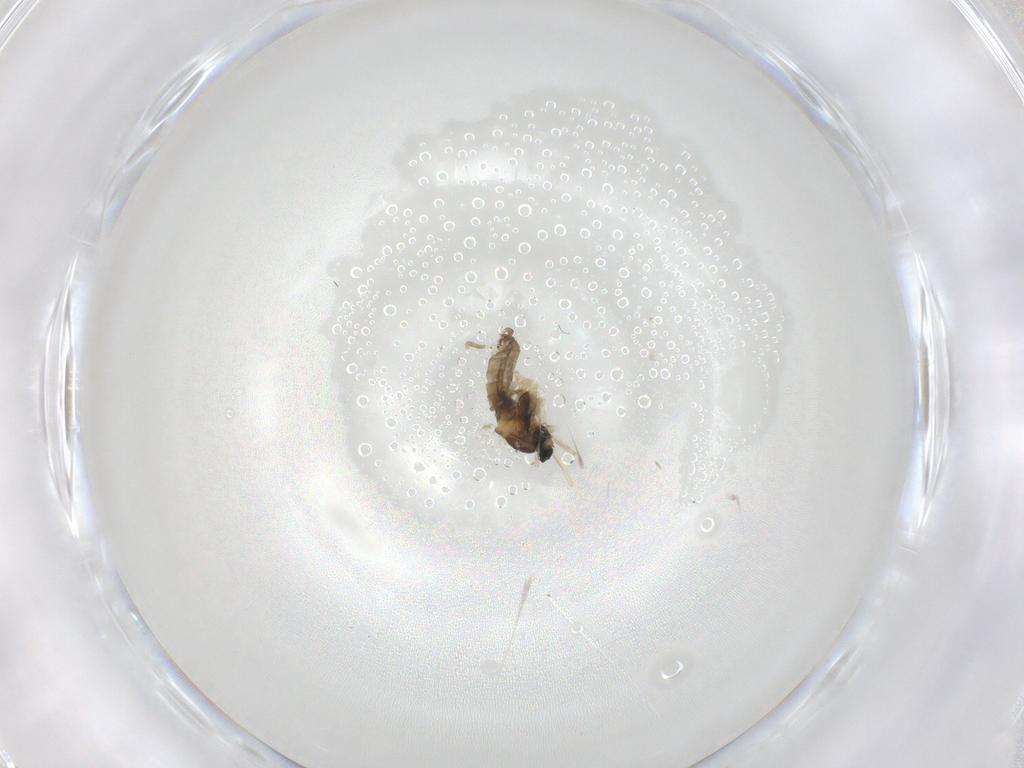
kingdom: Animalia
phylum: Arthropoda
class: Insecta
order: Diptera
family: Cecidomyiidae
